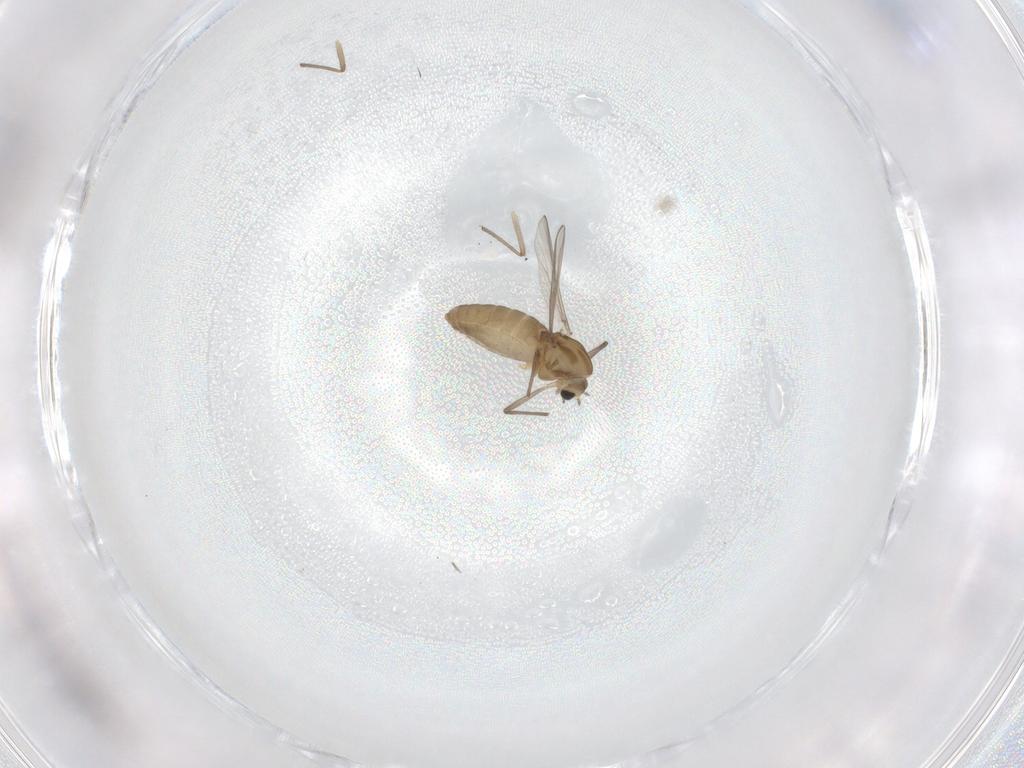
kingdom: Animalia
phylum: Arthropoda
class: Insecta
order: Diptera
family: Chironomidae
